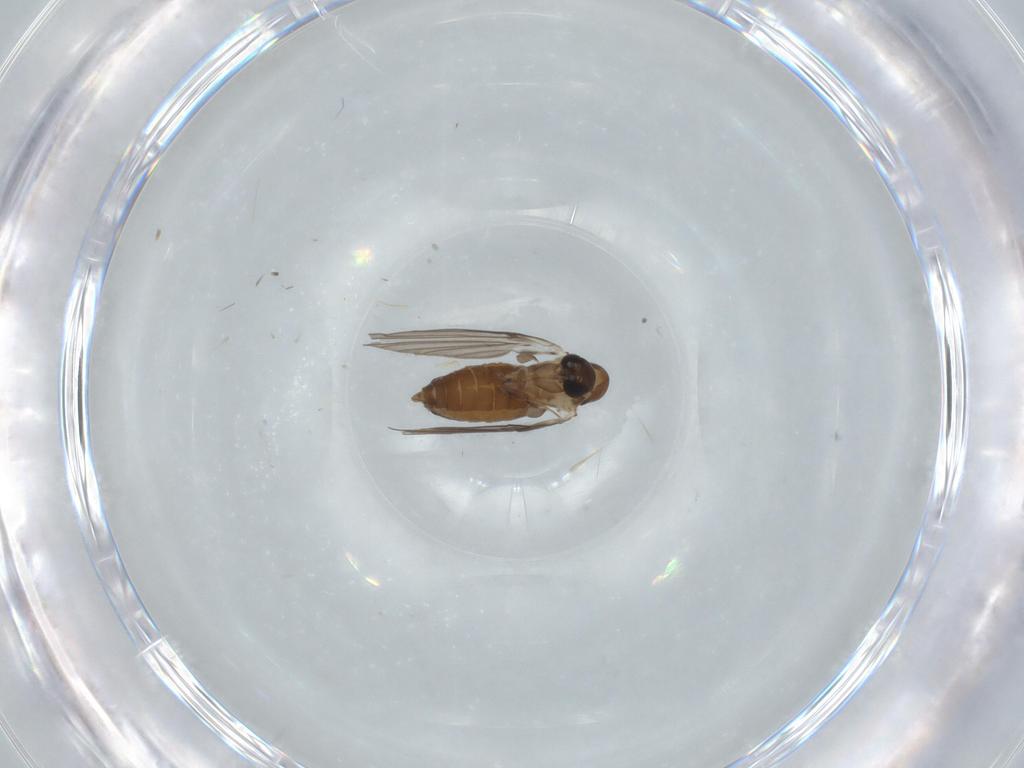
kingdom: Animalia
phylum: Arthropoda
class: Insecta
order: Diptera
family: Psychodidae
